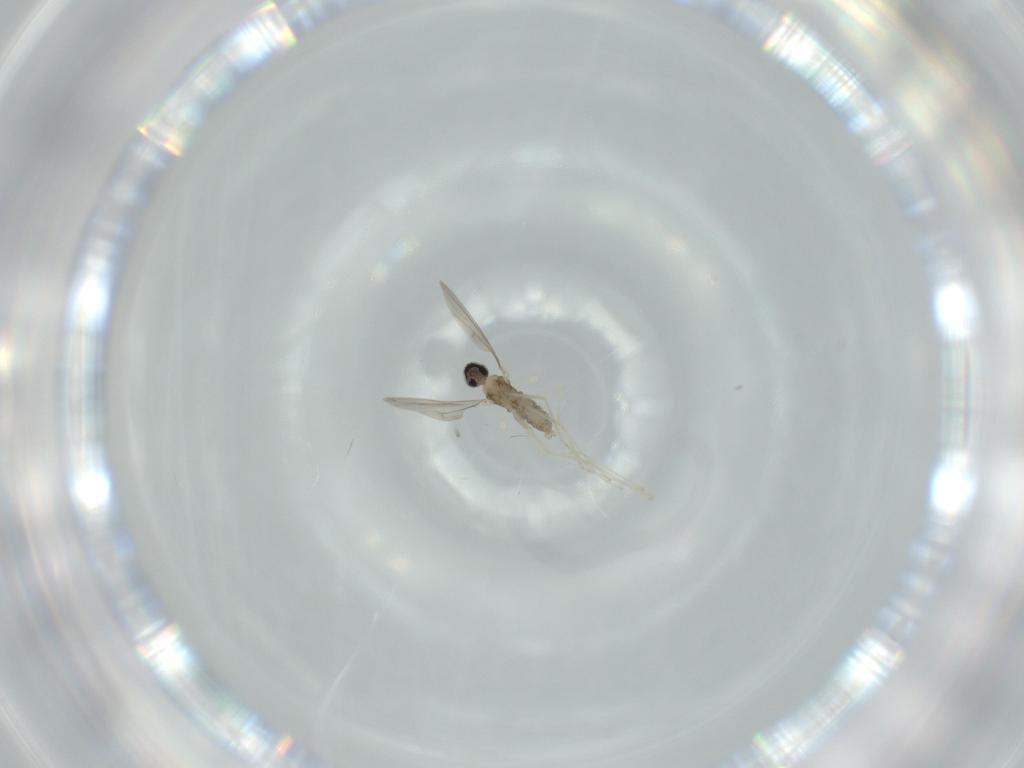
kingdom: Animalia
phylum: Arthropoda
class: Insecta
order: Diptera
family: Cecidomyiidae
